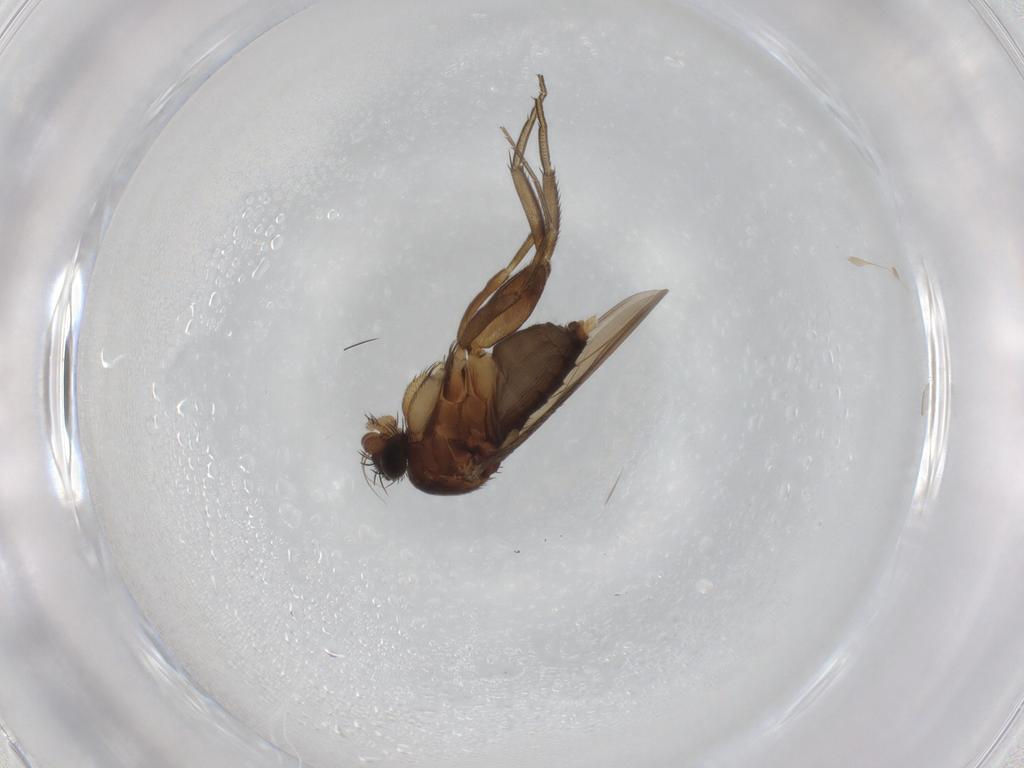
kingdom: Animalia
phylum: Arthropoda
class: Insecta
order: Diptera
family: Phoridae
